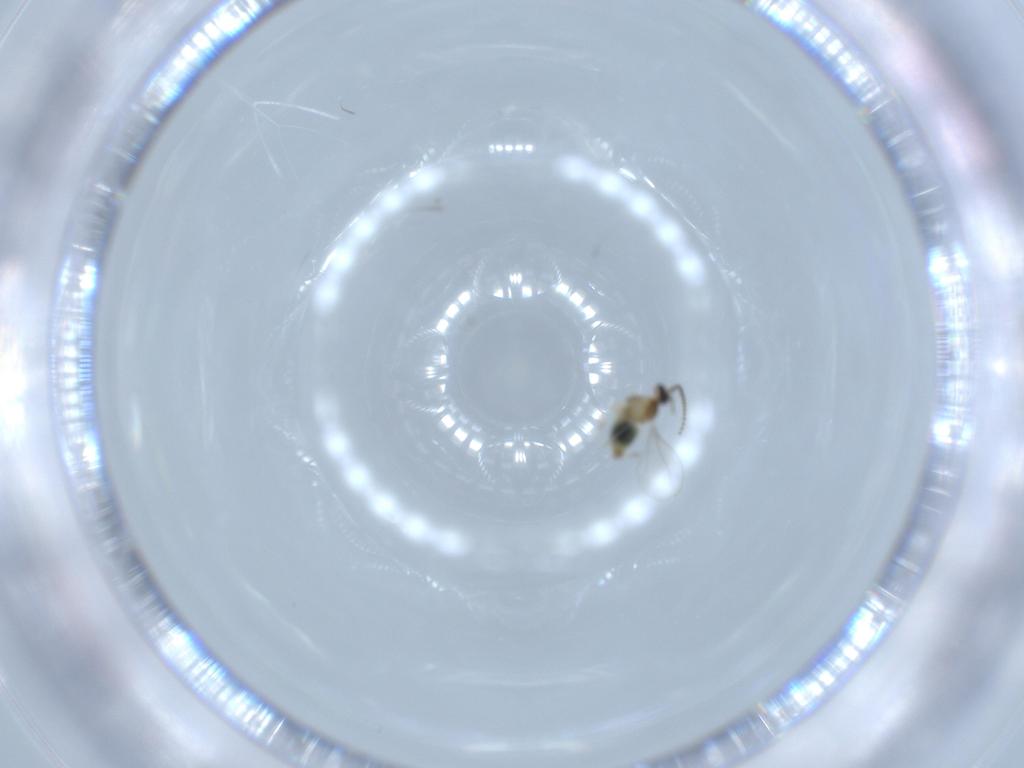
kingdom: Animalia
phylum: Arthropoda
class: Insecta
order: Diptera
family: Cecidomyiidae
